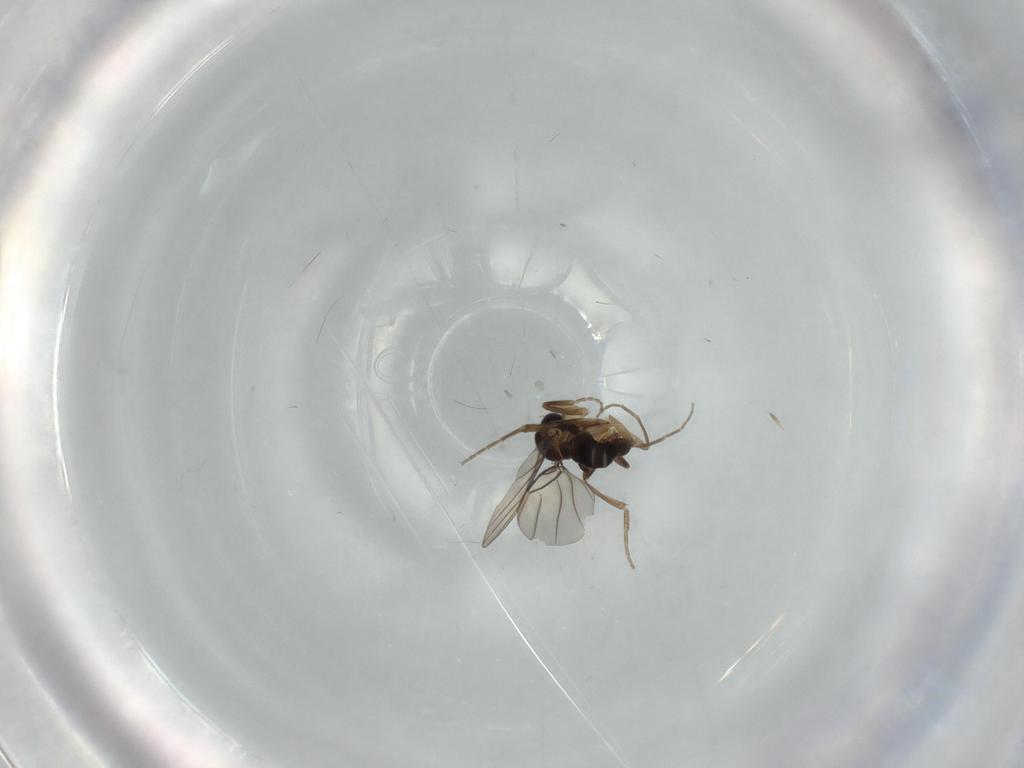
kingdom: Animalia
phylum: Arthropoda
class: Insecta
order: Diptera
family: Phoridae
